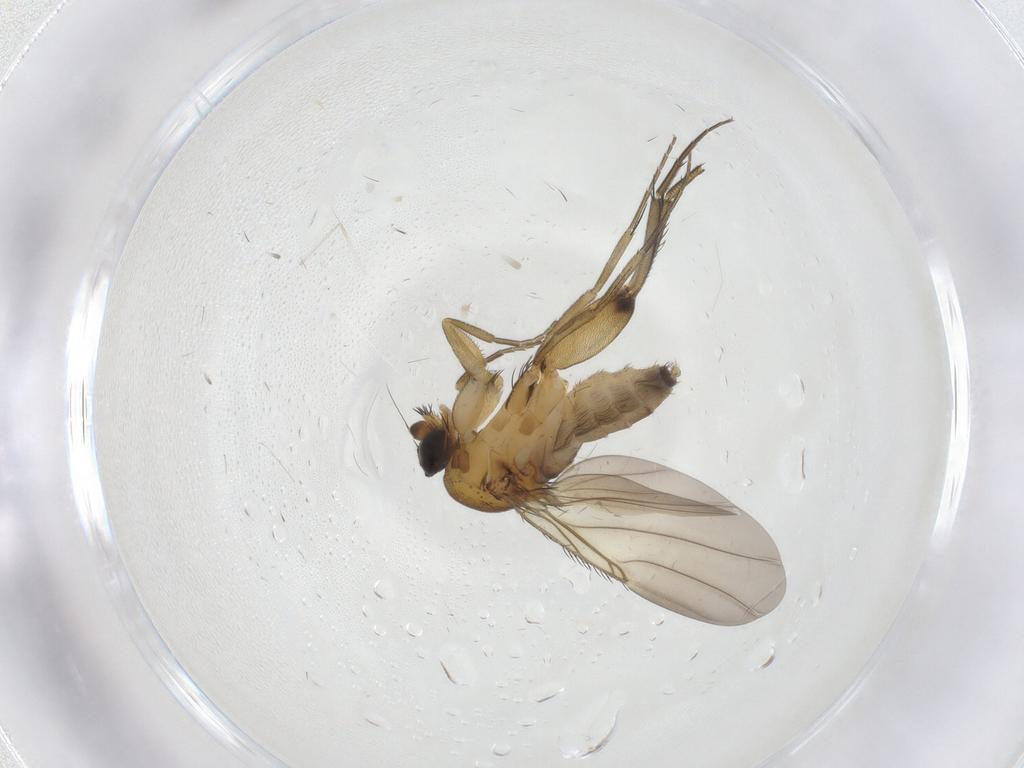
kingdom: Animalia
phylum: Arthropoda
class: Insecta
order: Diptera
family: Phoridae
